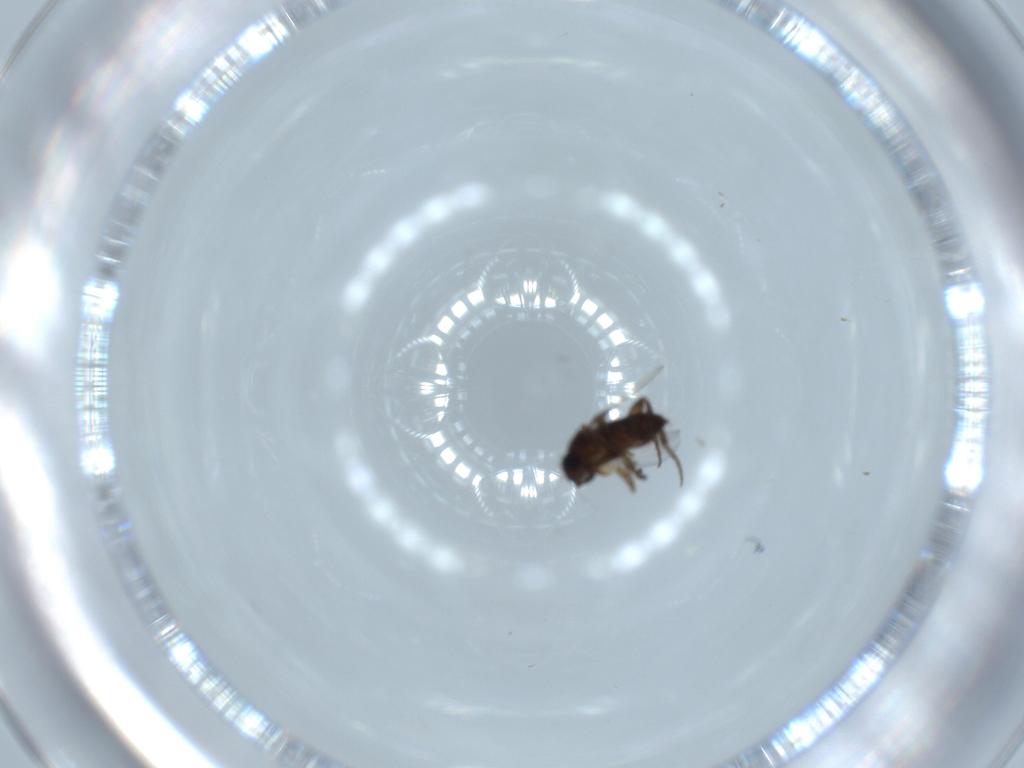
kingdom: Animalia
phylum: Arthropoda
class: Insecta
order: Diptera
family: Phoridae
